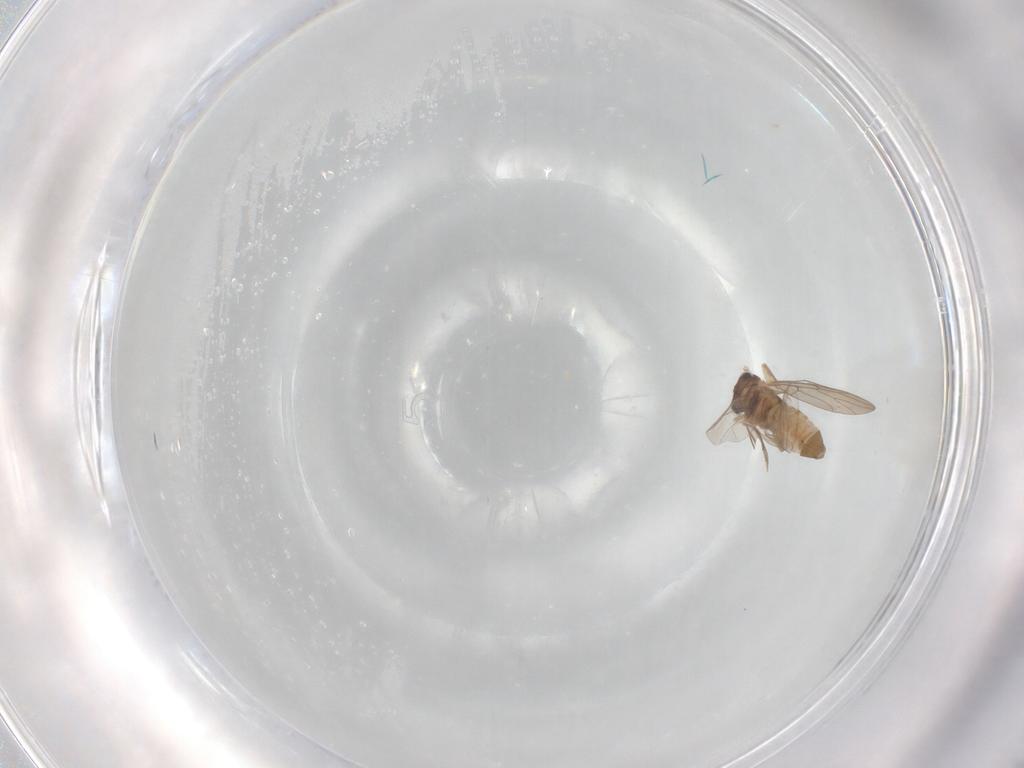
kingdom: Animalia
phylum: Arthropoda
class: Insecta
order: Psocodea
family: Lepidopsocidae
